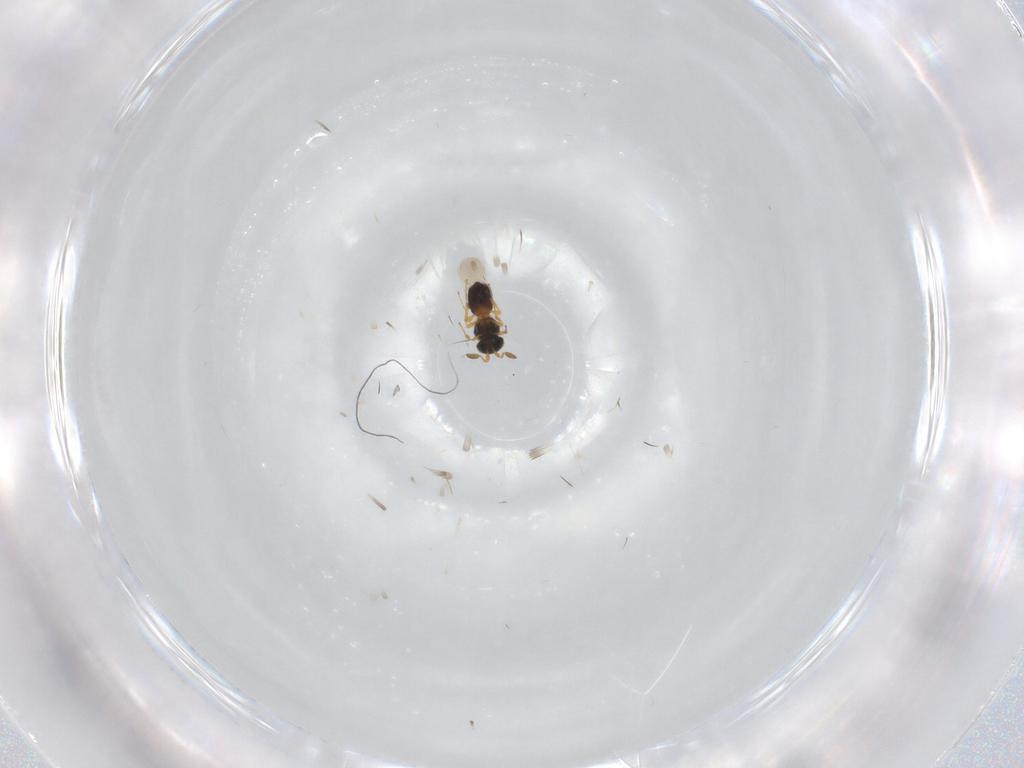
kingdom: Animalia
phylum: Arthropoda
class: Insecta
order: Hymenoptera
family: Platygastridae
